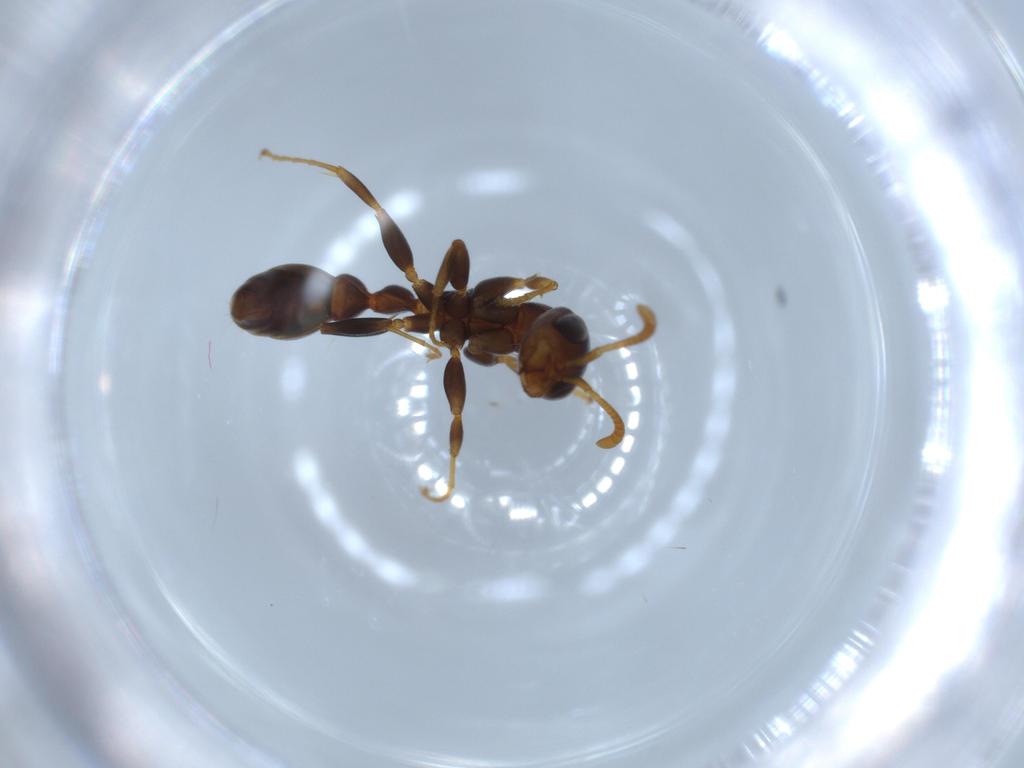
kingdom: Animalia
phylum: Arthropoda
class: Insecta
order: Hymenoptera
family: Formicidae
